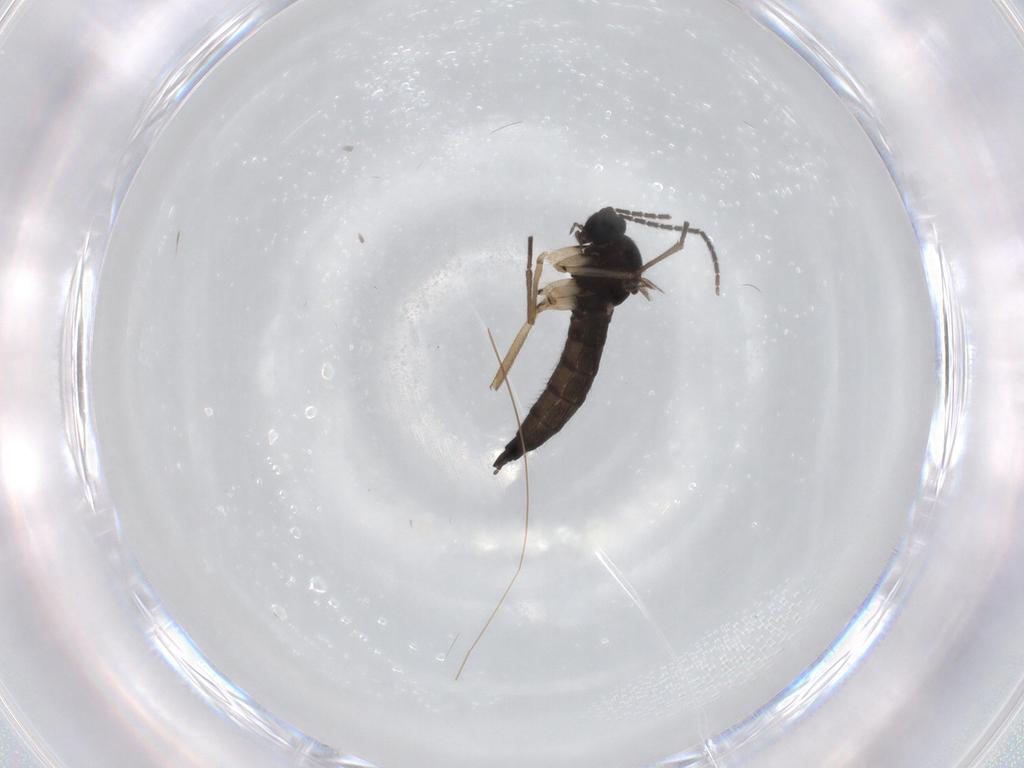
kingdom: Animalia
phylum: Arthropoda
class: Insecta
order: Diptera
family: Sciaridae
